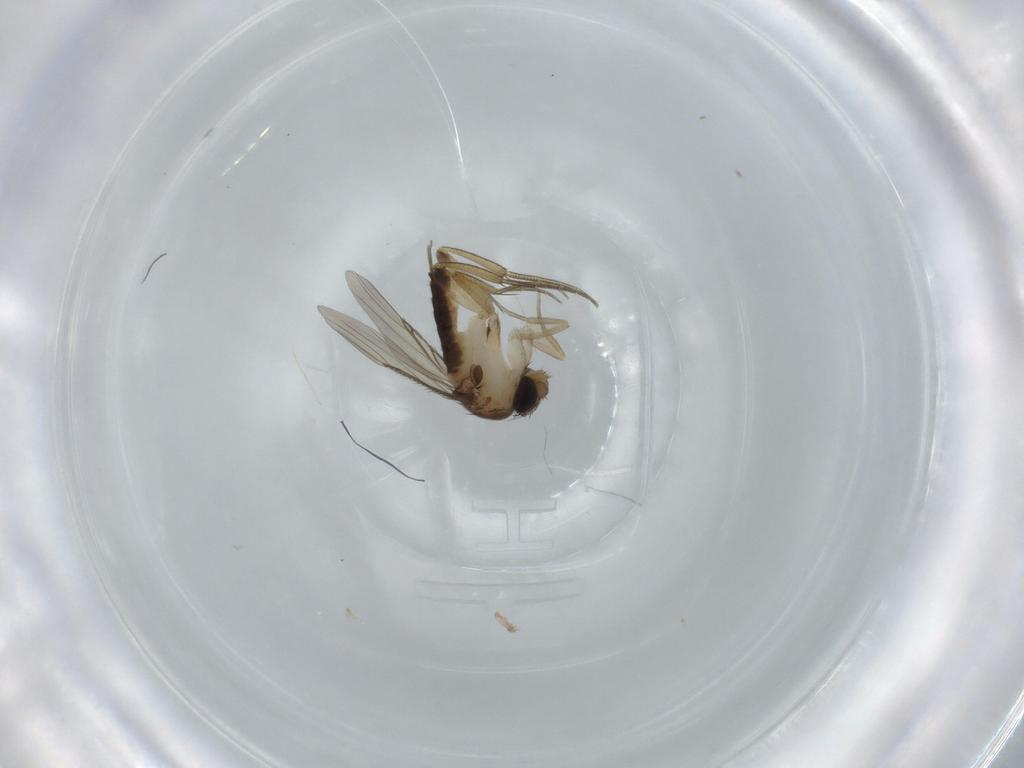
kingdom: Animalia
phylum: Arthropoda
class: Insecta
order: Diptera
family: Phoridae
